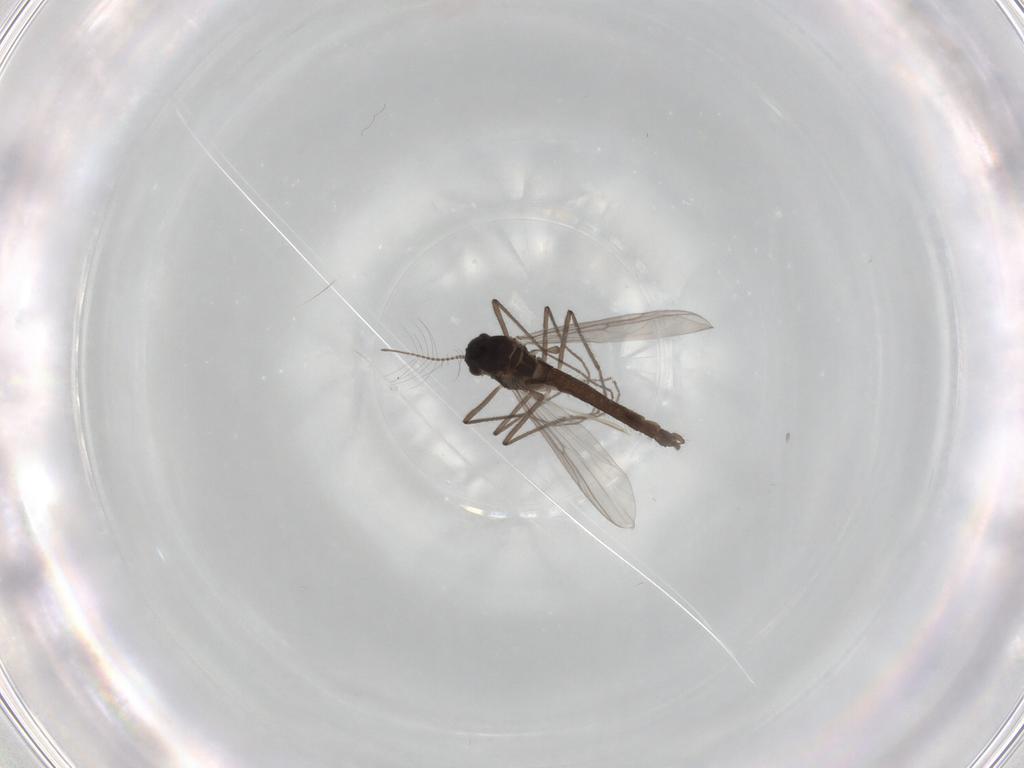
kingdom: Animalia
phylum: Arthropoda
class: Insecta
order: Diptera
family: Chironomidae
